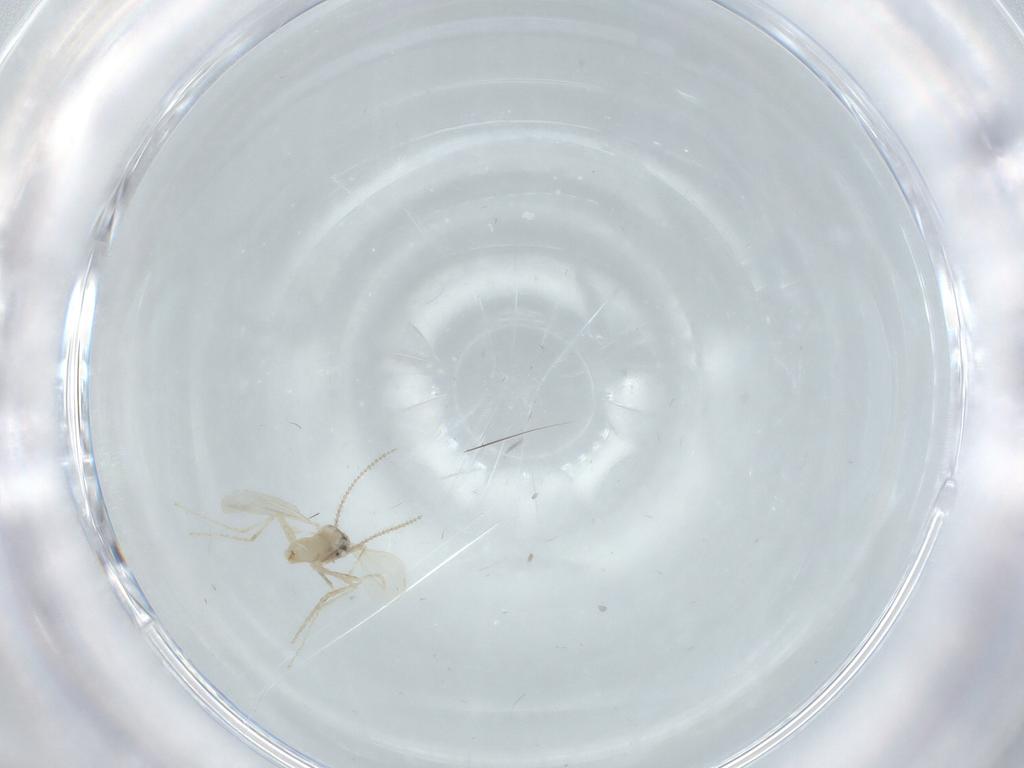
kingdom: Animalia
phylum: Arthropoda
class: Insecta
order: Diptera
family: Cecidomyiidae
